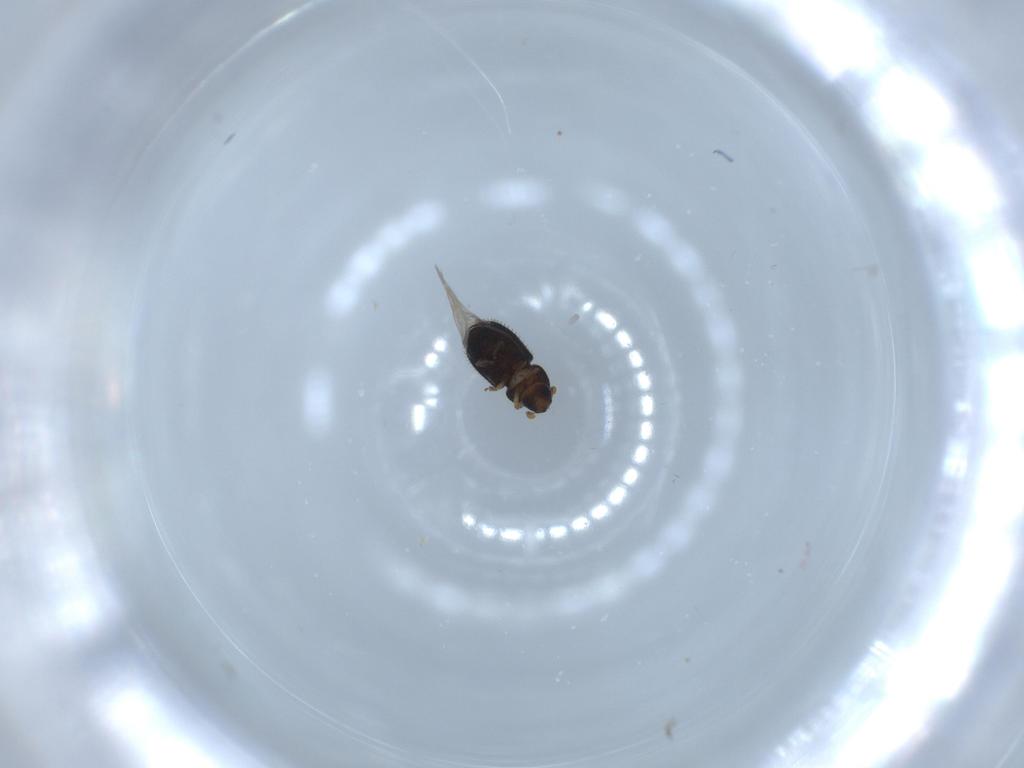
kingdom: Animalia
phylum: Arthropoda
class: Insecta
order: Coleoptera
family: Curculionidae
